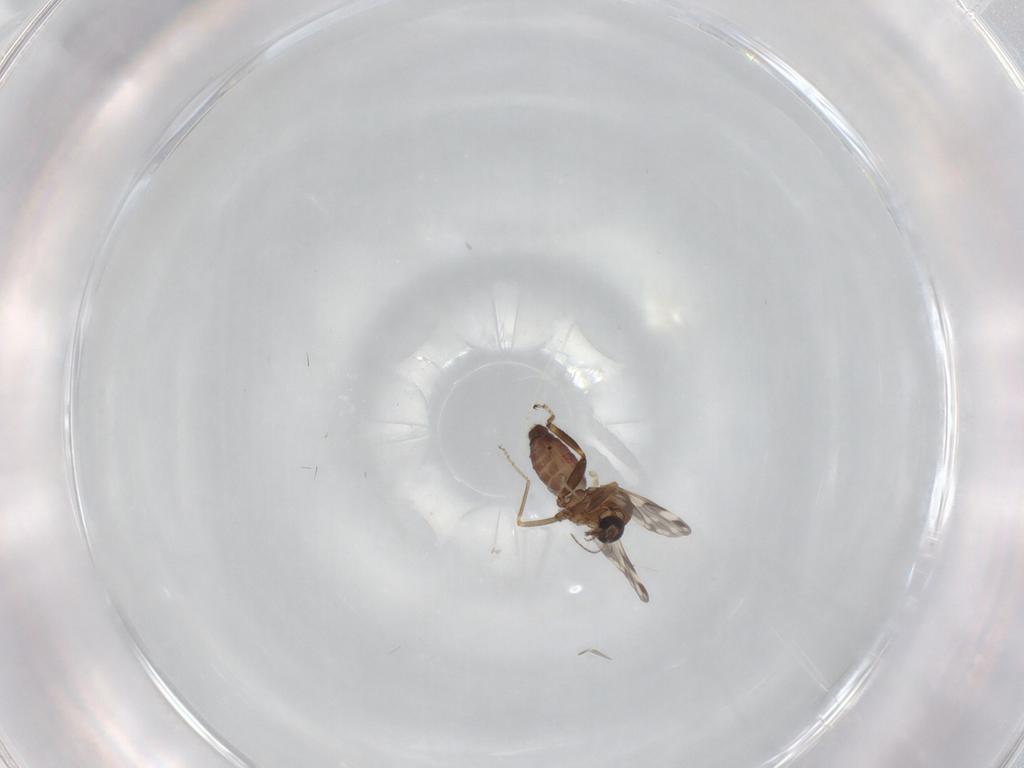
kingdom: Animalia
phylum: Arthropoda
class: Insecta
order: Diptera
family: Ceratopogonidae
